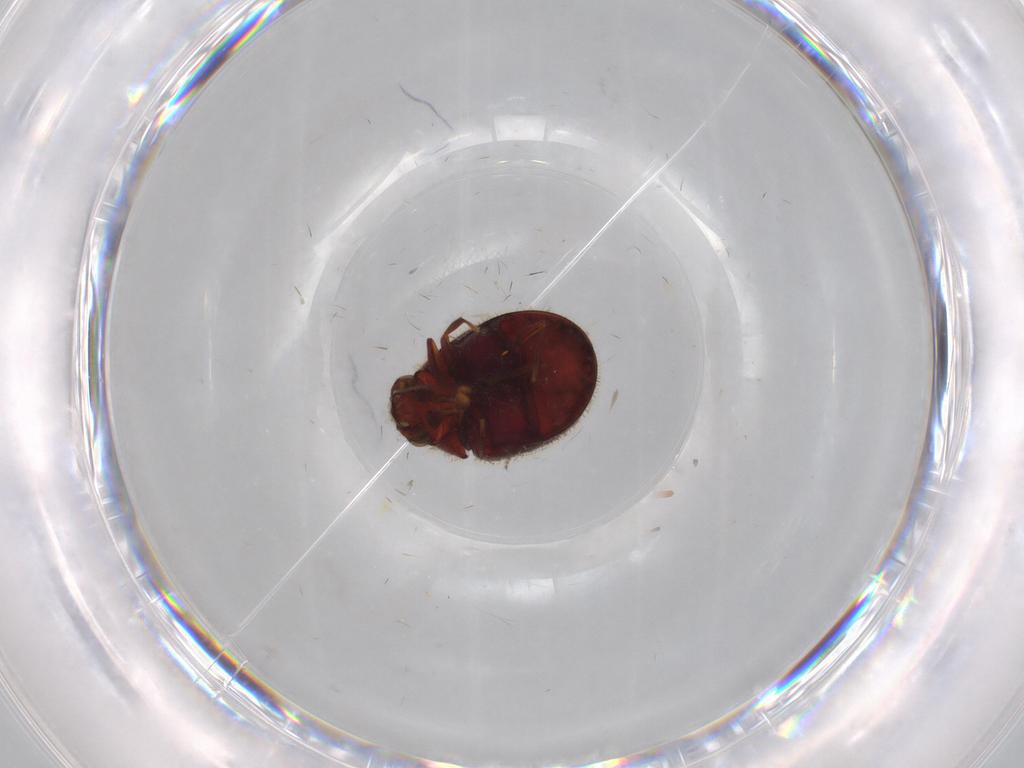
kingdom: Animalia
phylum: Arthropoda
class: Insecta
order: Coleoptera
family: Ptinidae
